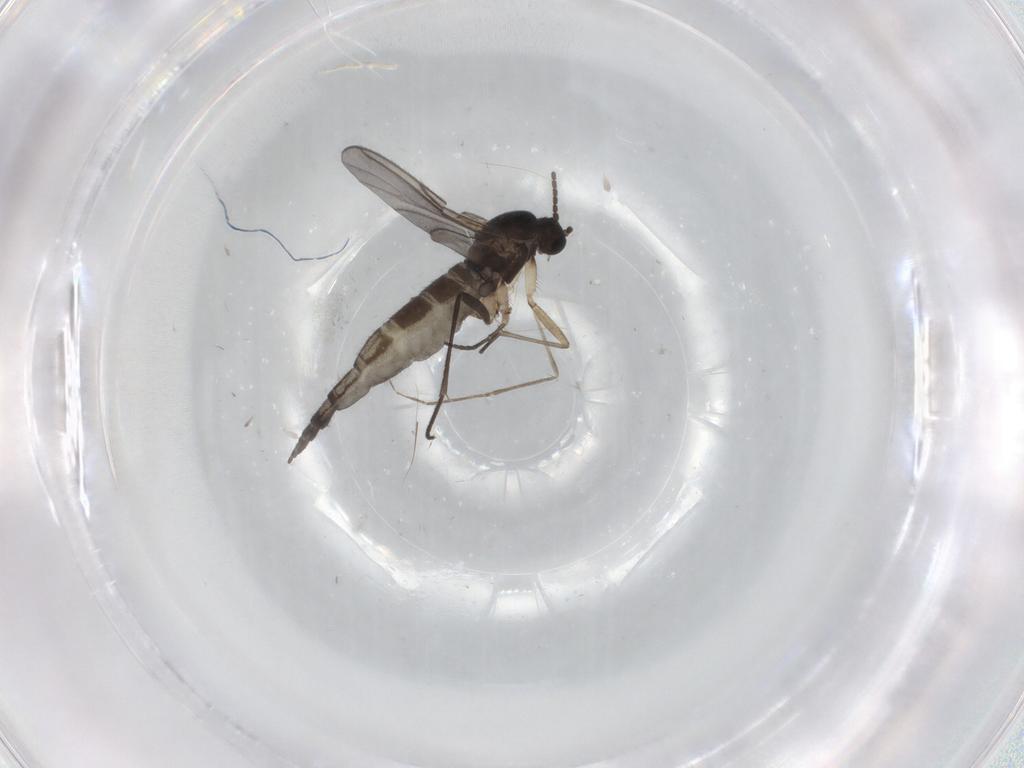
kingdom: Animalia
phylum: Arthropoda
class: Insecta
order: Diptera
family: Sciaridae
